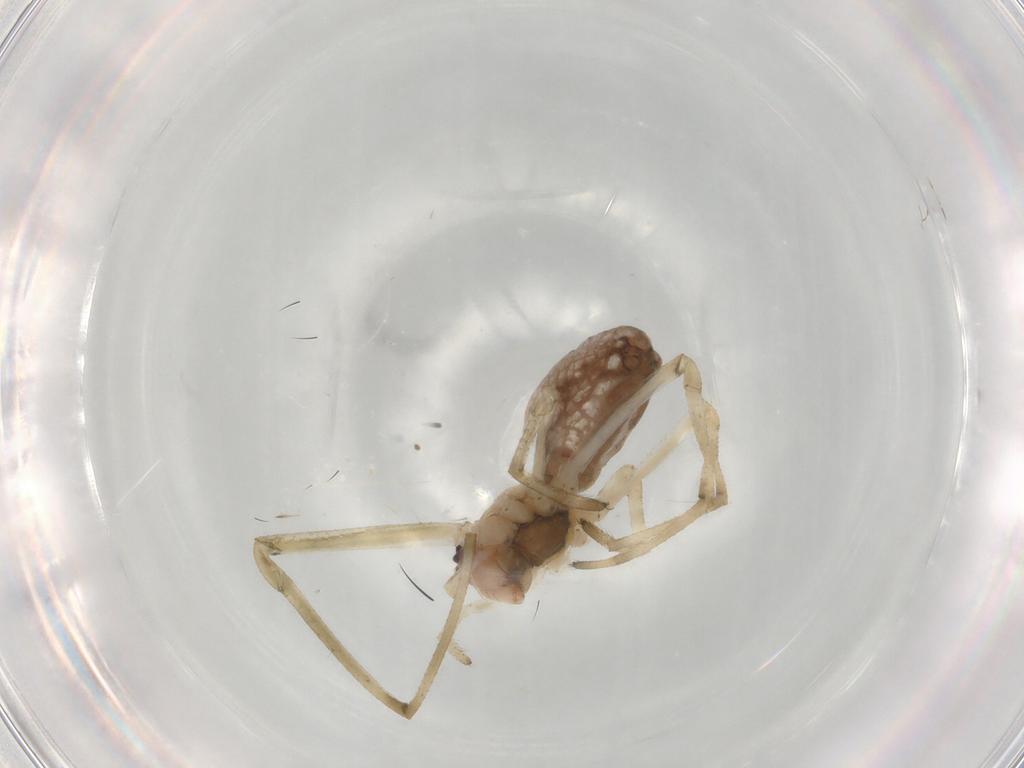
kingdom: Animalia
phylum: Arthropoda
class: Arachnida
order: Araneae
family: Tetragnathidae
